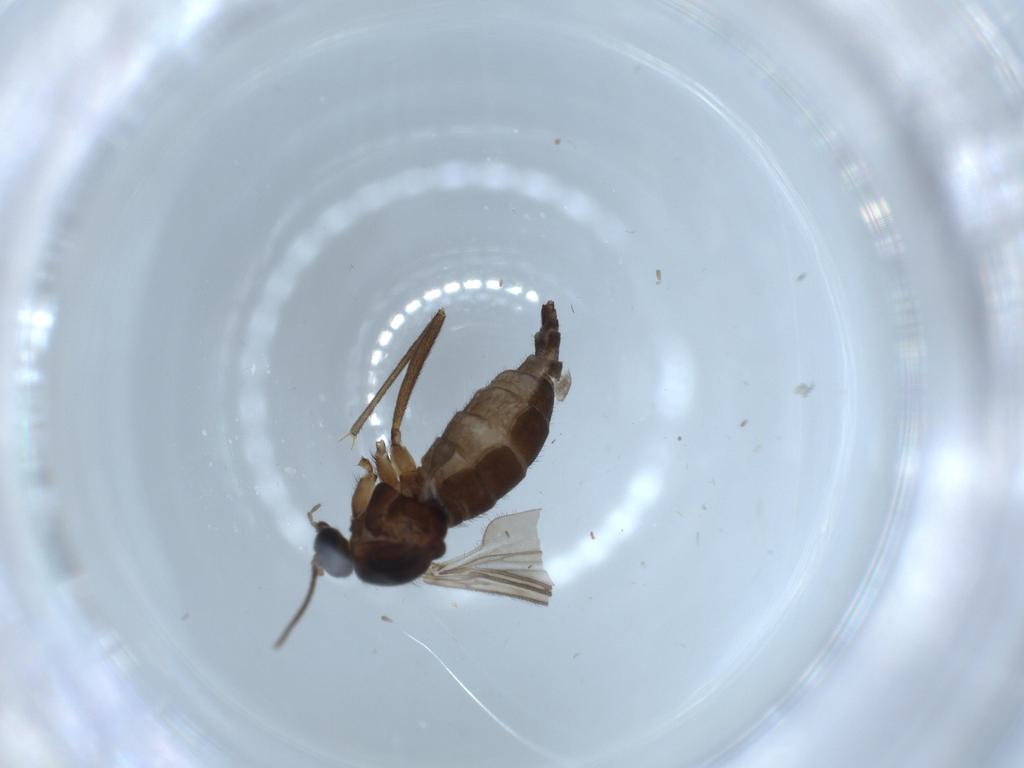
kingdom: Animalia
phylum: Arthropoda
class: Insecta
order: Diptera
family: Sciaridae
